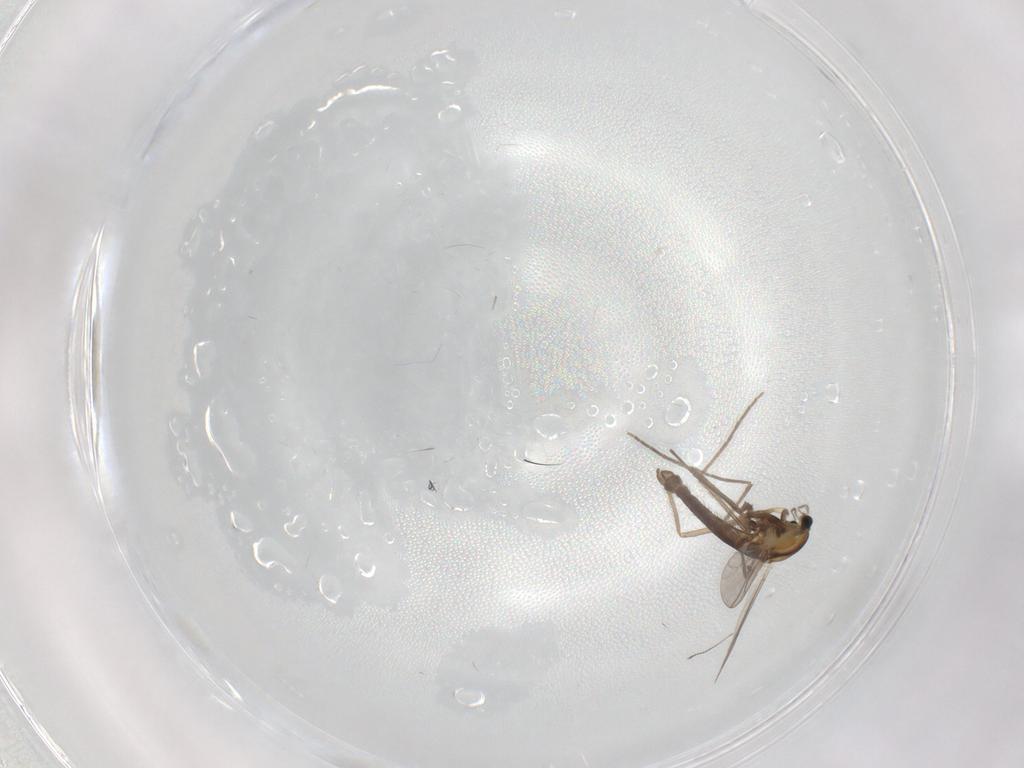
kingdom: Animalia
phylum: Arthropoda
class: Insecta
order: Diptera
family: Chironomidae
